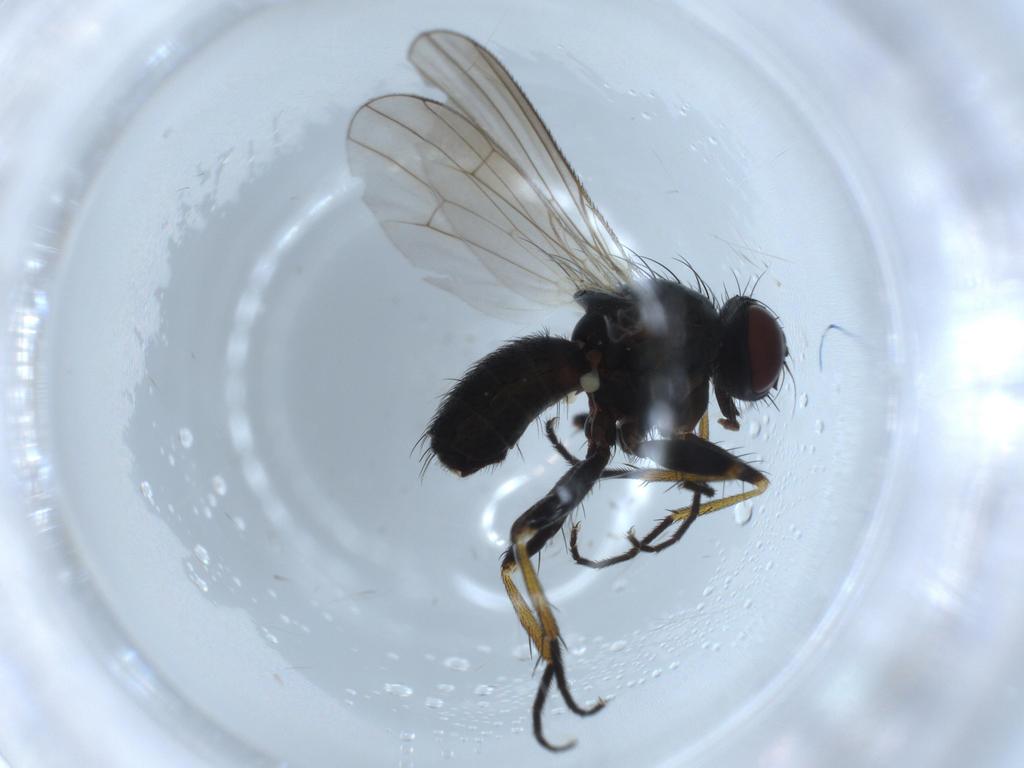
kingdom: Animalia
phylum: Arthropoda
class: Insecta
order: Diptera
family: Muscidae
